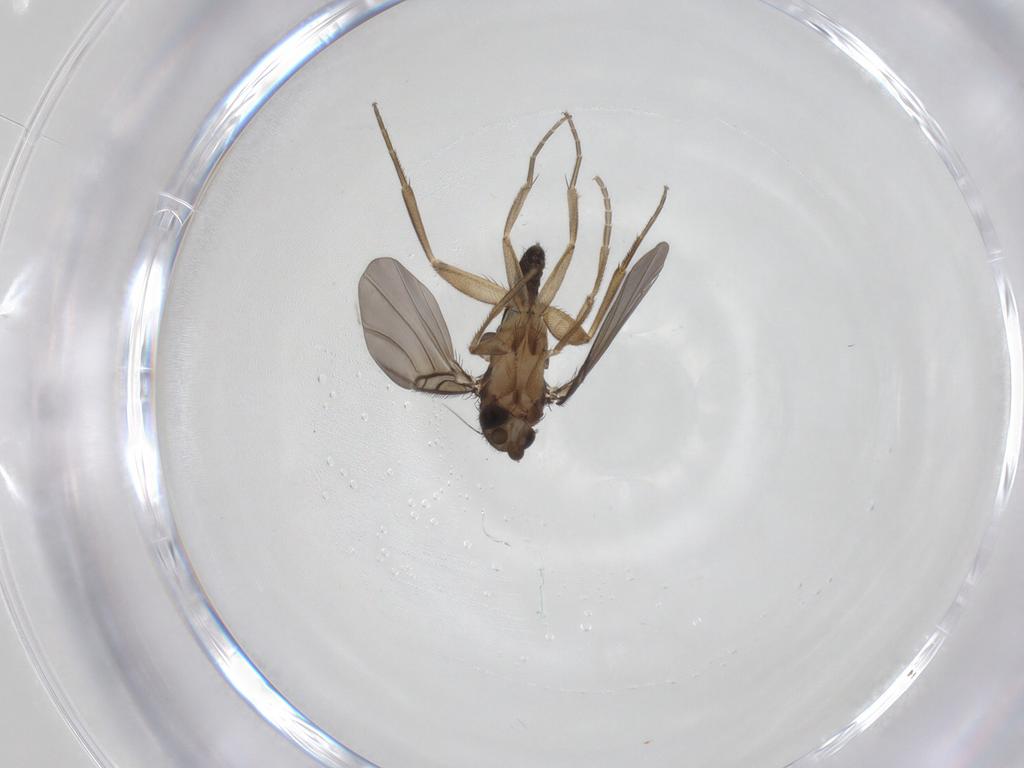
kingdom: Animalia
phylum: Arthropoda
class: Insecta
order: Diptera
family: Phoridae
